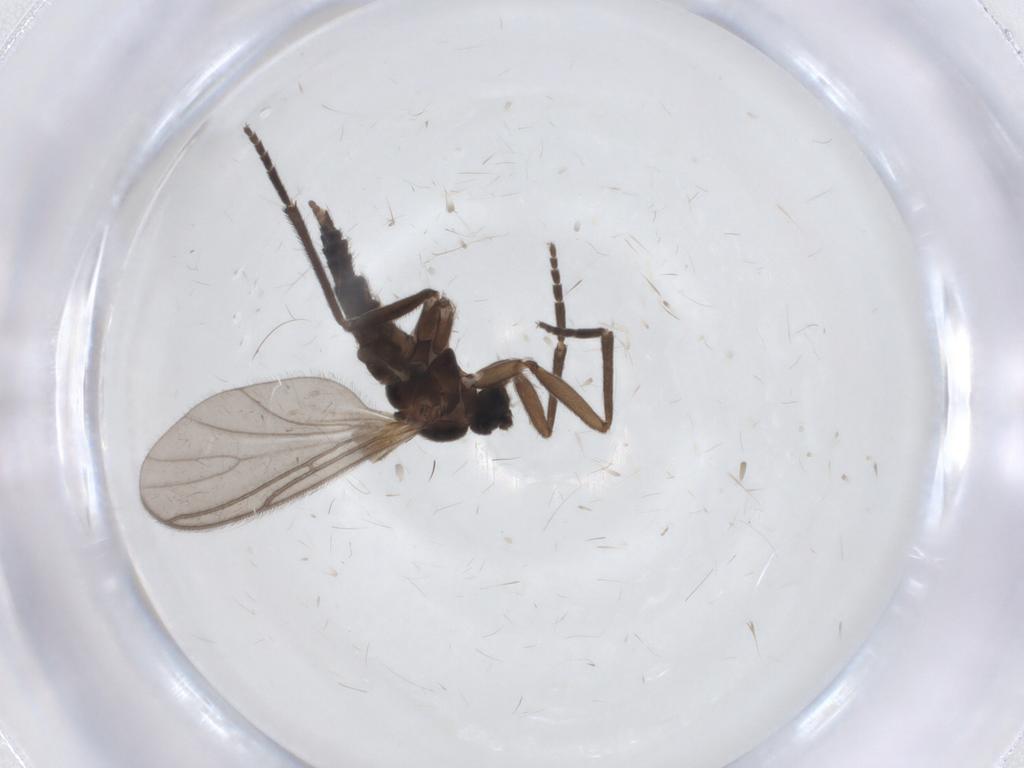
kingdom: Animalia
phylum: Arthropoda
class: Insecta
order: Diptera
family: Sciaridae
